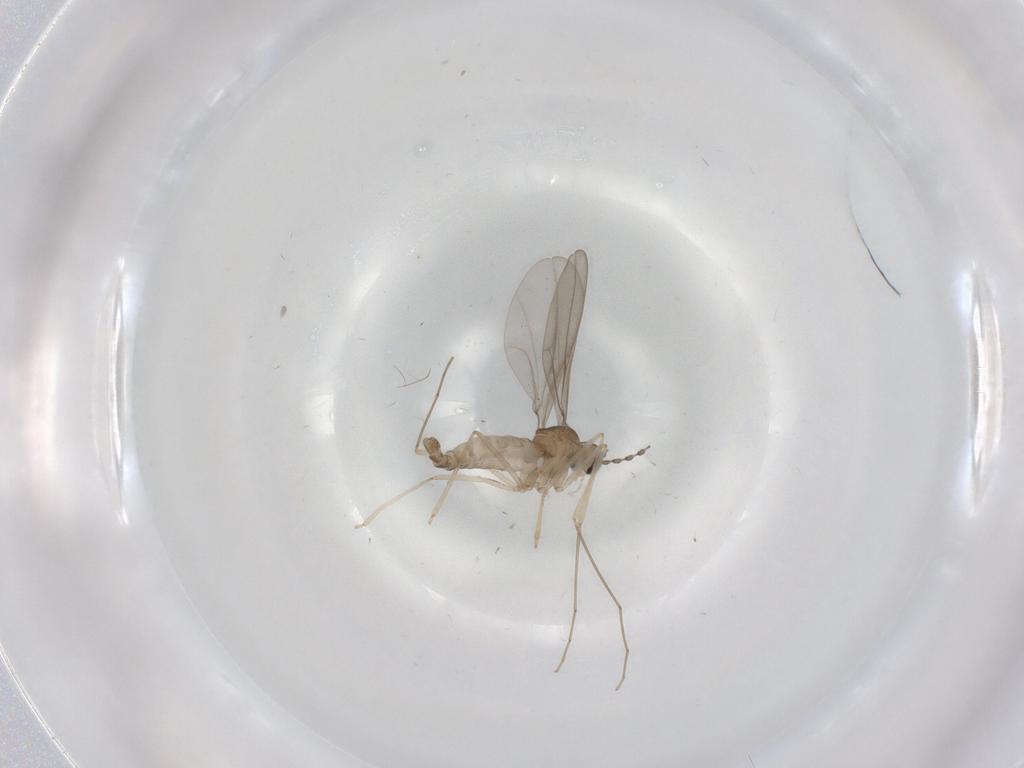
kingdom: Animalia
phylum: Arthropoda
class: Insecta
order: Diptera
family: Cecidomyiidae
